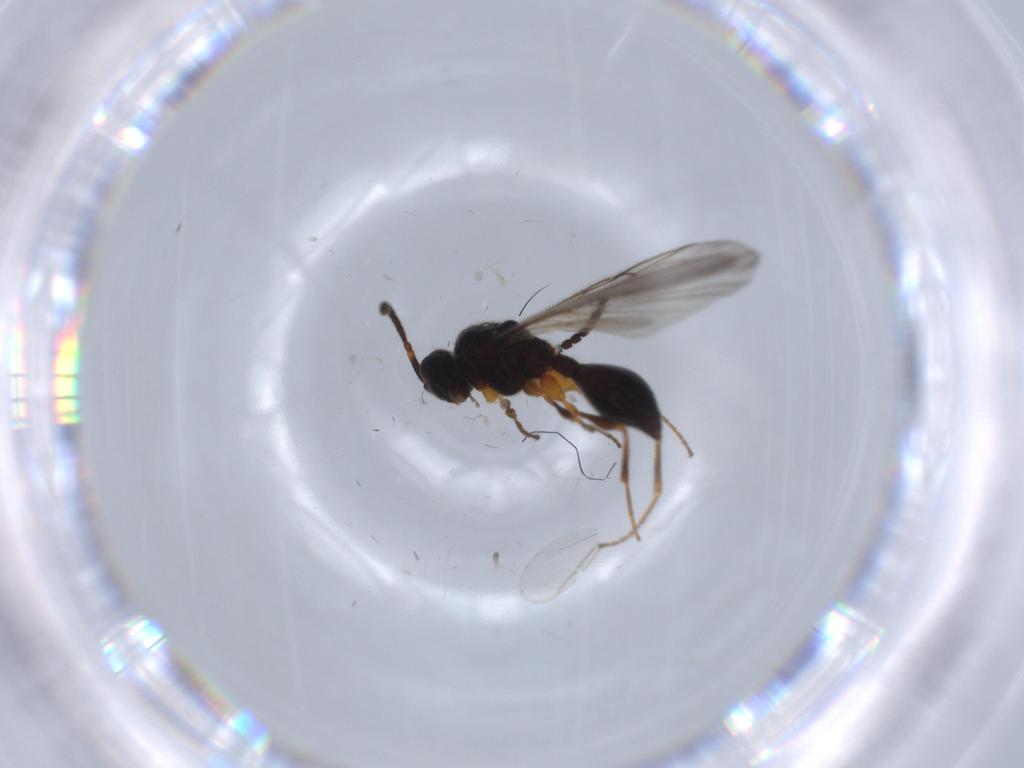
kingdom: Animalia
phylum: Arthropoda
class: Insecta
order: Hymenoptera
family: Diapriidae
